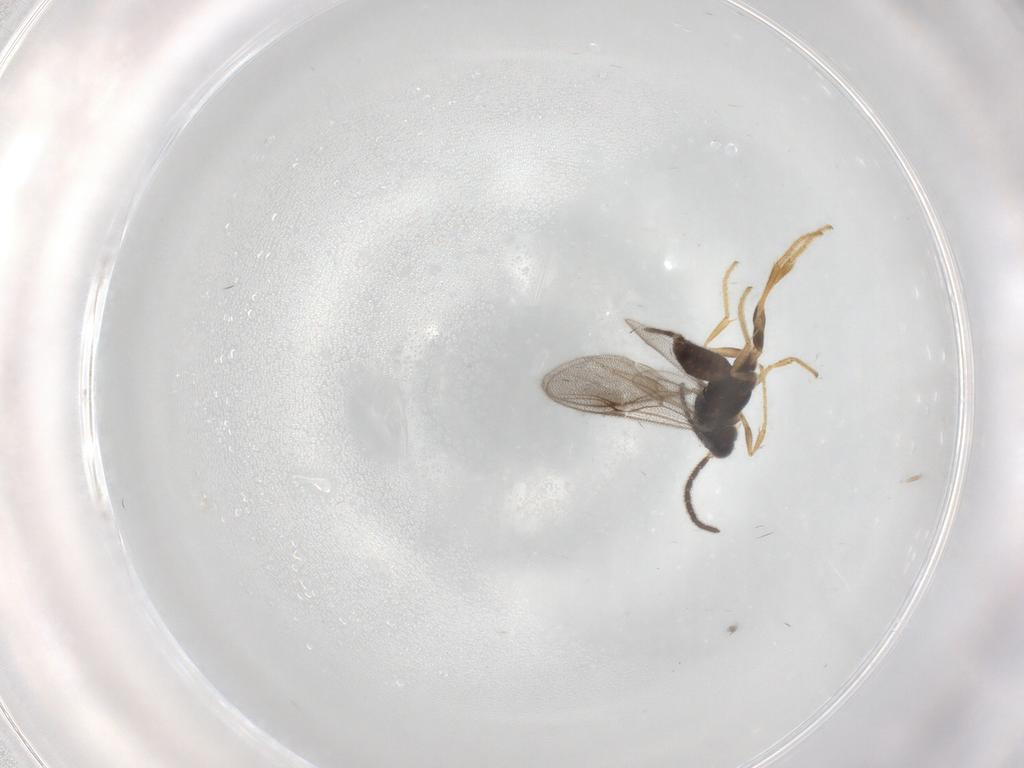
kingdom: Animalia
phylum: Arthropoda
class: Insecta
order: Hymenoptera
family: Dryinidae
